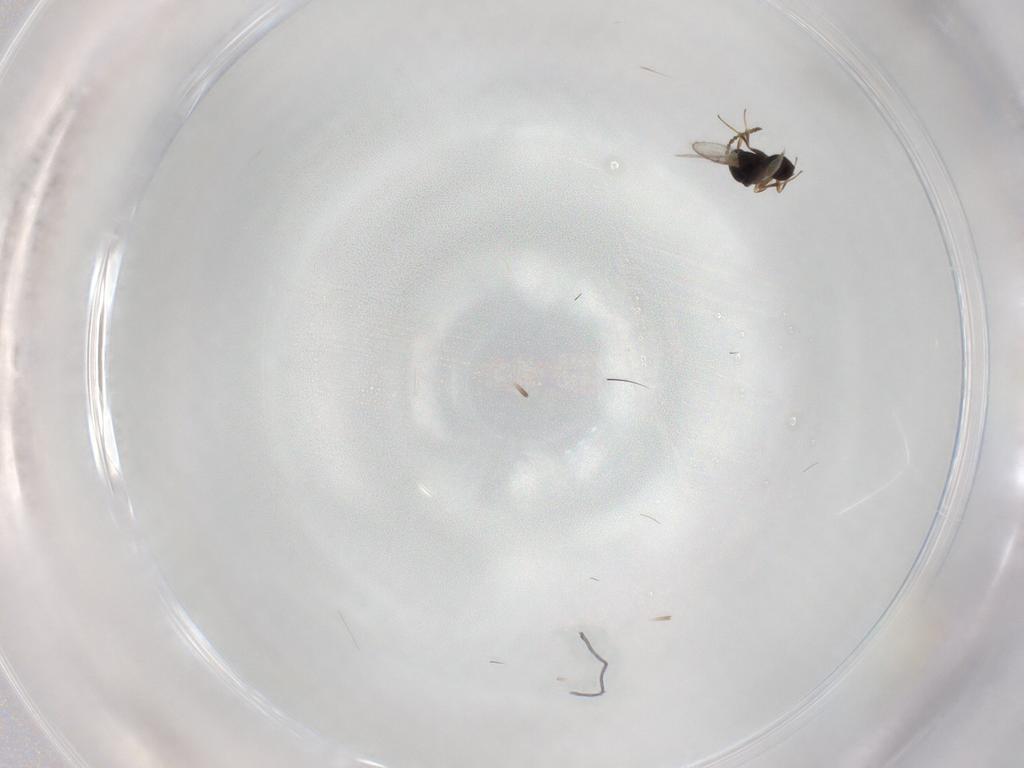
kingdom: Animalia
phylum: Arthropoda
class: Insecta
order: Hymenoptera
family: Scelionidae
